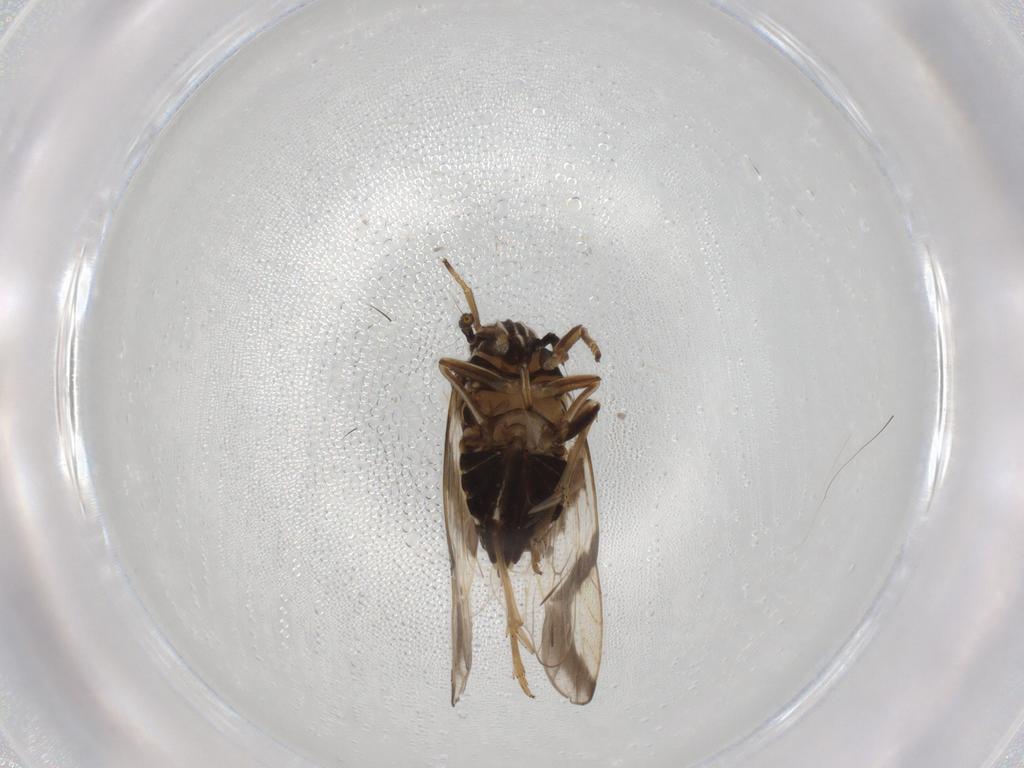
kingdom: Animalia
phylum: Arthropoda
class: Insecta
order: Hemiptera
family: Delphacidae
